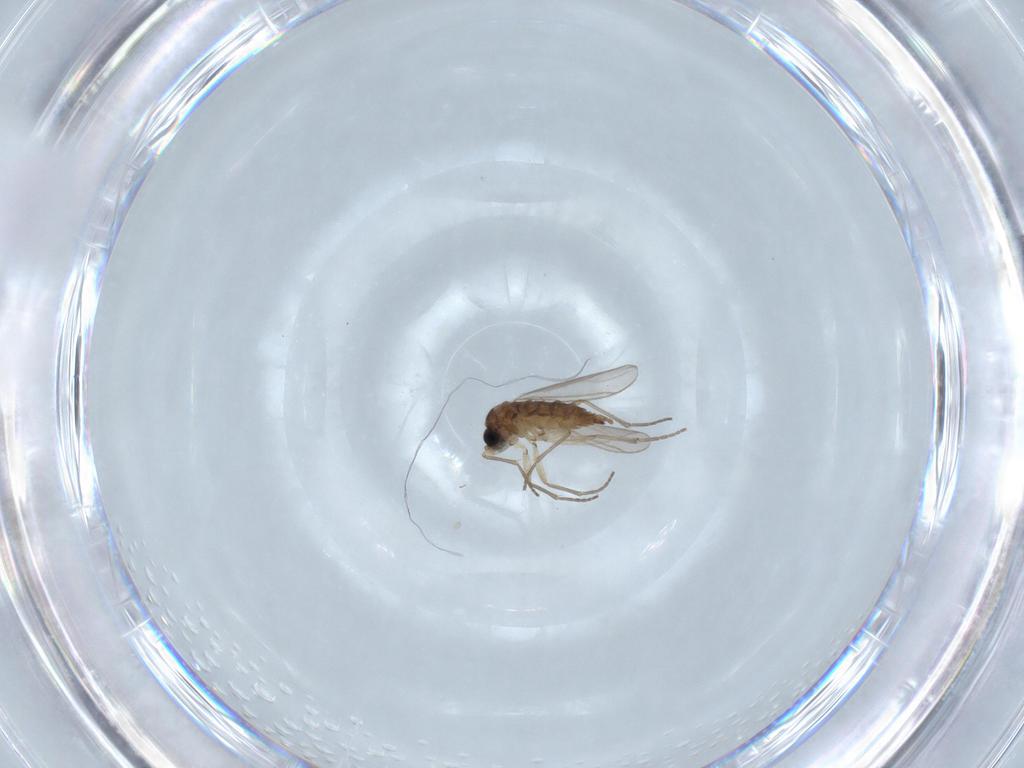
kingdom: Animalia
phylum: Arthropoda
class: Insecta
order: Diptera
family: Sciaridae
